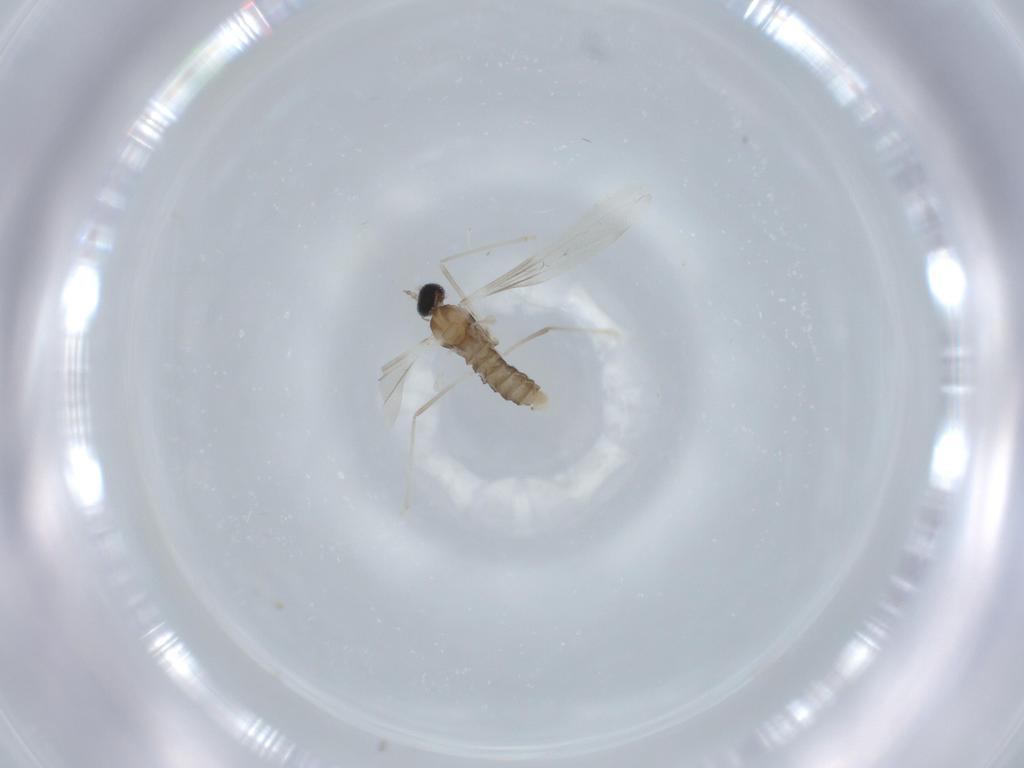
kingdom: Animalia
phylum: Arthropoda
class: Insecta
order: Diptera
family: Cecidomyiidae
